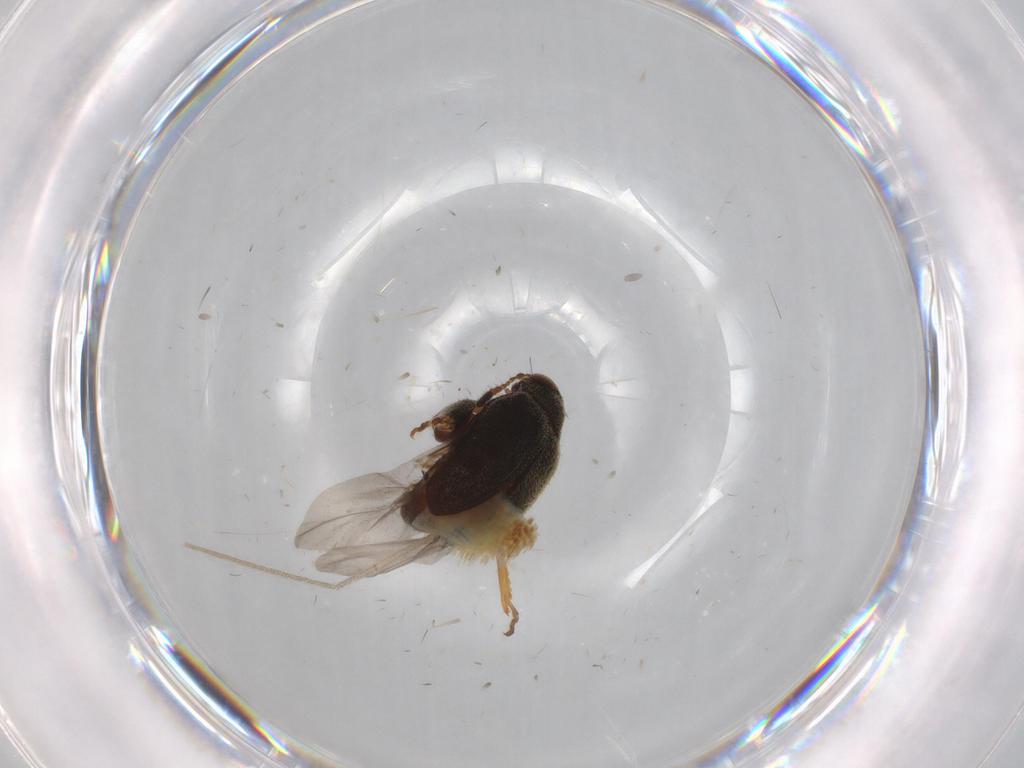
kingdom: Animalia
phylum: Arthropoda
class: Insecta
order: Coleoptera
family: Chrysomelidae
